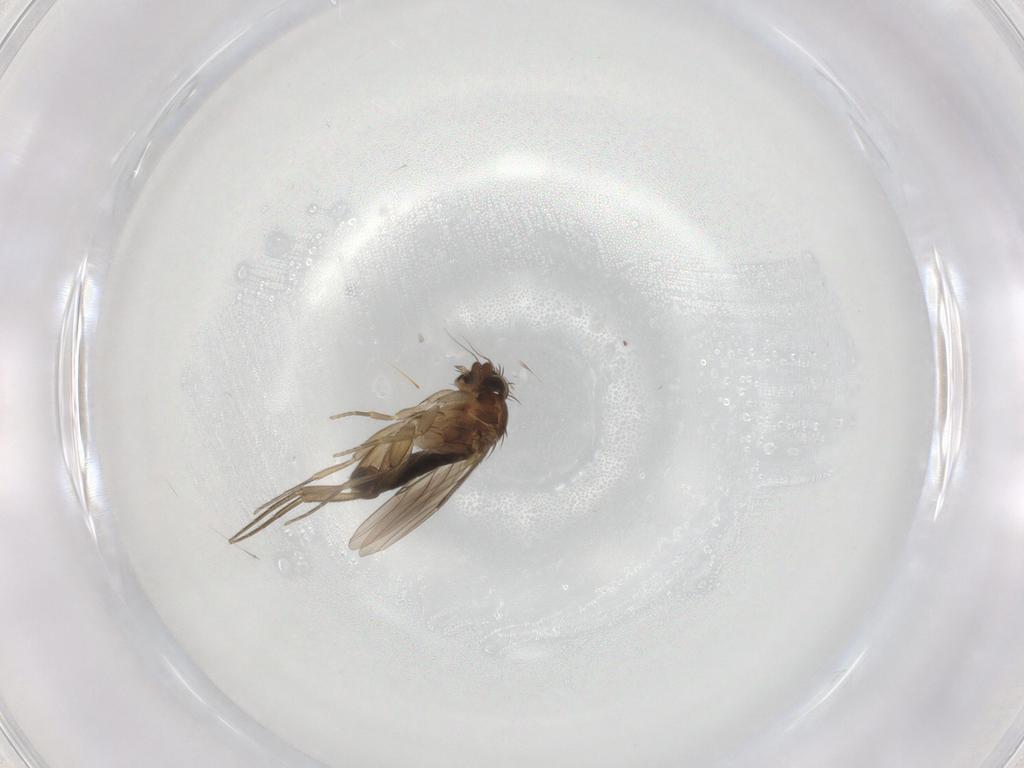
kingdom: Animalia
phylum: Arthropoda
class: Insecta
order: Diptera
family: Phoridae
